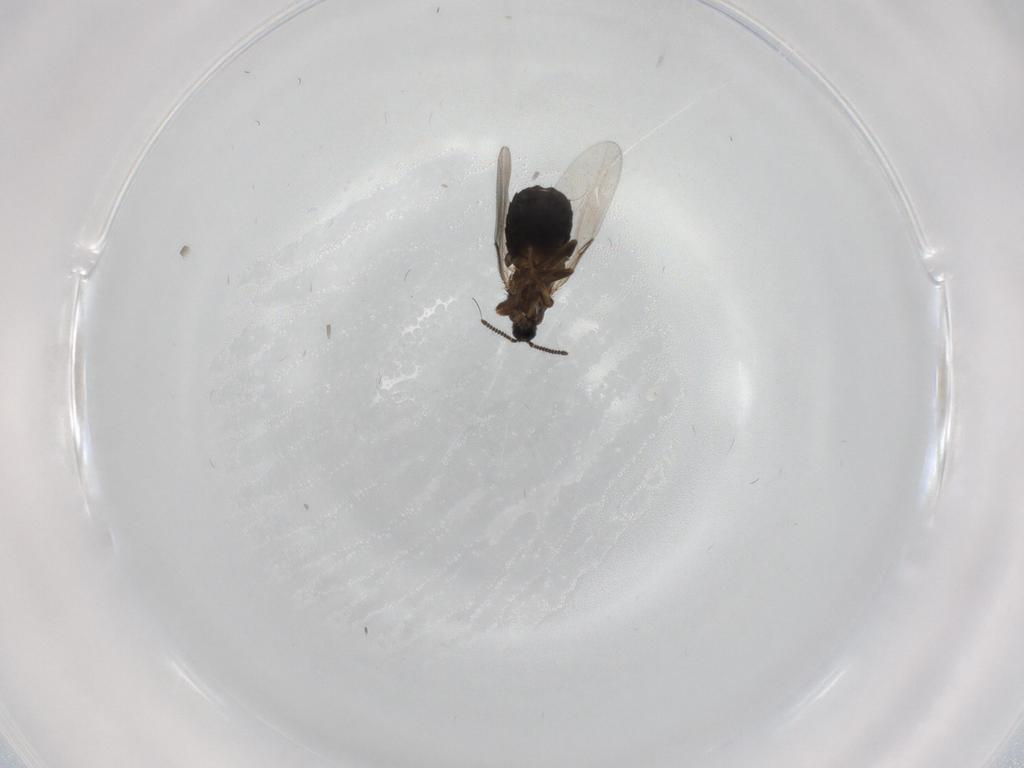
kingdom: Animalia
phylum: Arthropoda
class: Insecta
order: Diptera
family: Scatopsidae
